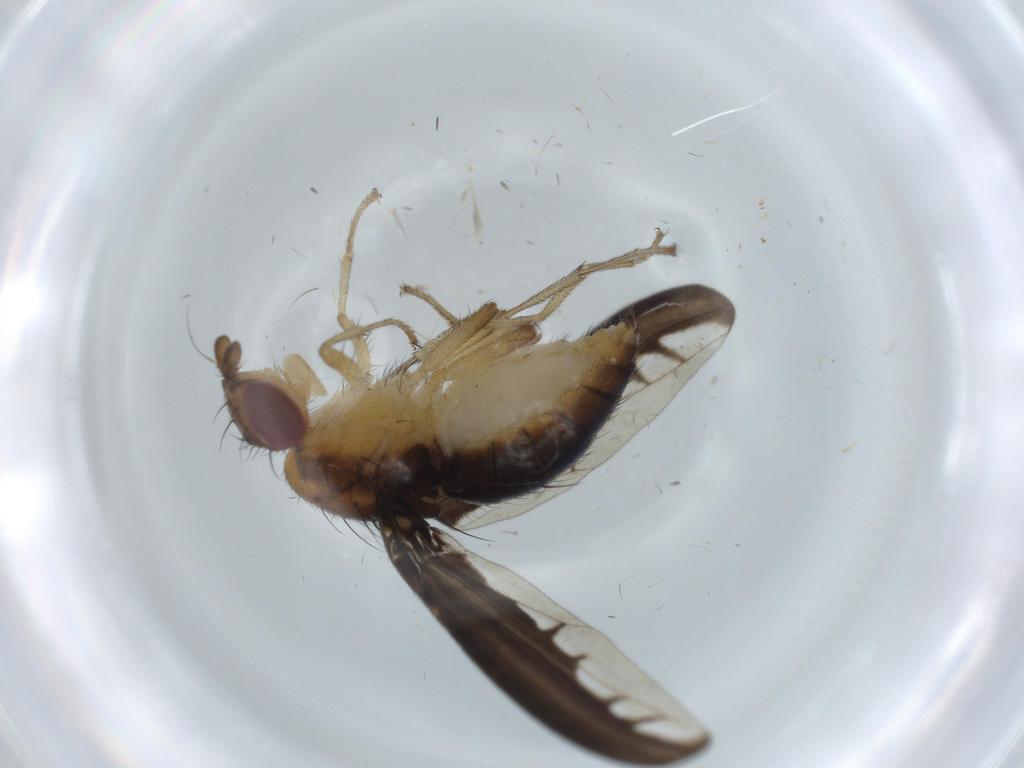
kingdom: Animalia
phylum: Arthropoda
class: Insecta
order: Diptera
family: Cecidomyiidae
